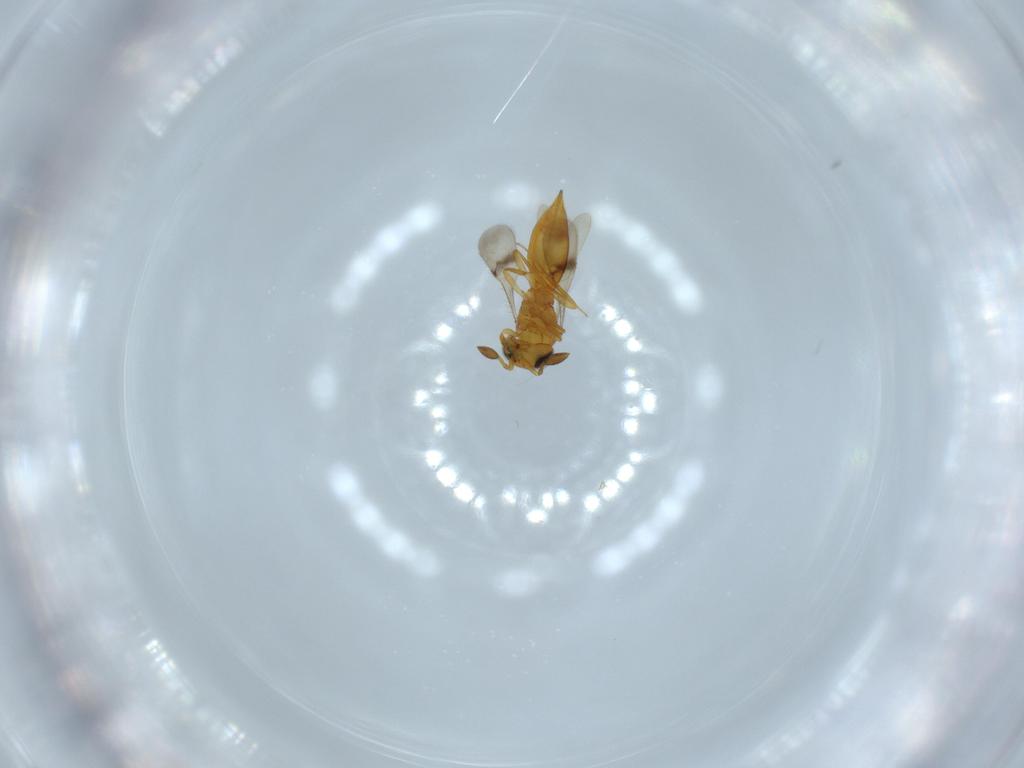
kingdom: Animalia
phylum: Arthropoda
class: Insecta
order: Hymenoptera
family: Scelionidae
